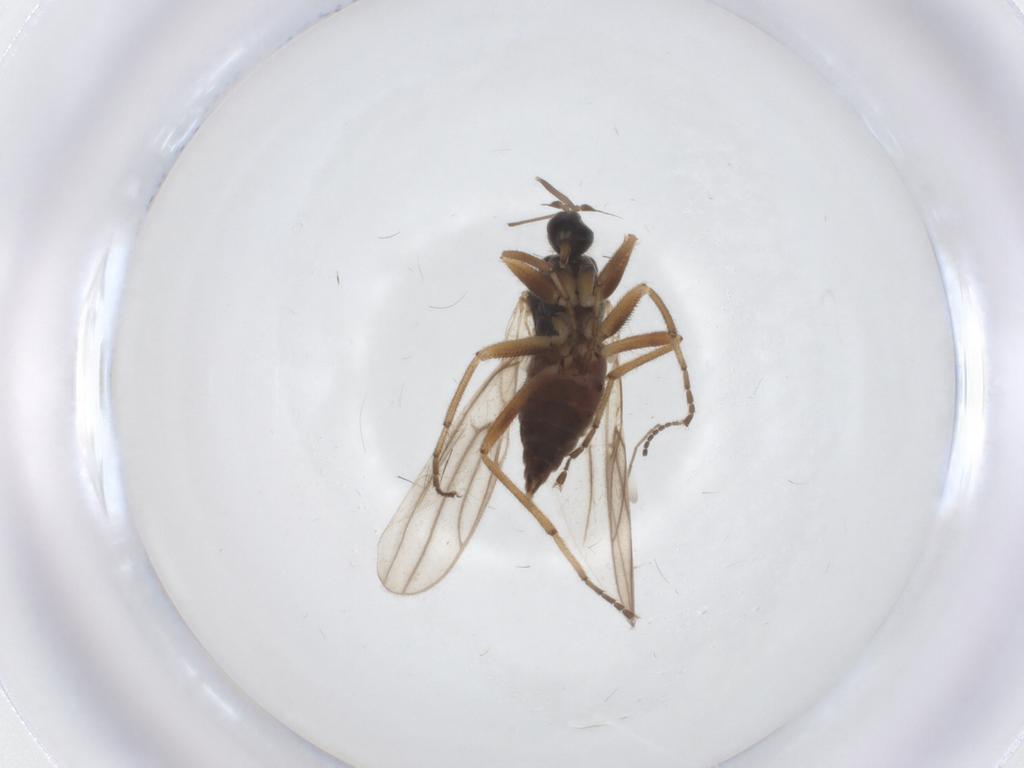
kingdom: Animalia
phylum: Arthropoda
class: Insecta
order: Diptera
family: Hybotidae
